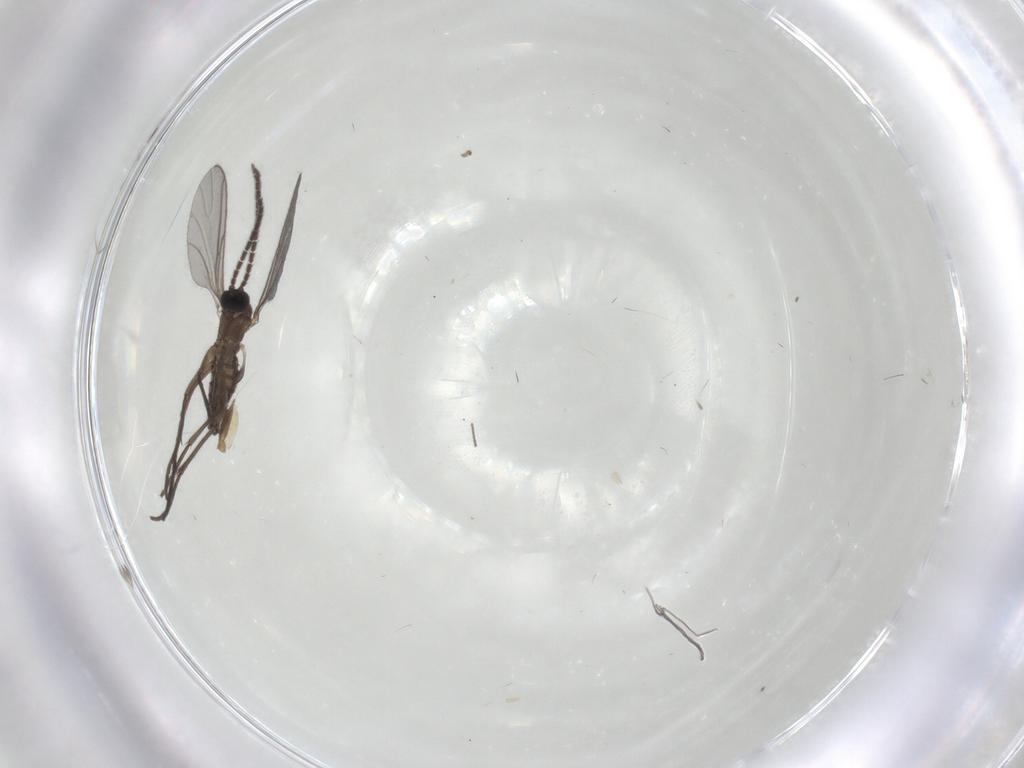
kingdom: Animalia
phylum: Arthropoda
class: Insecta
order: Diptera
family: Sciaridae
